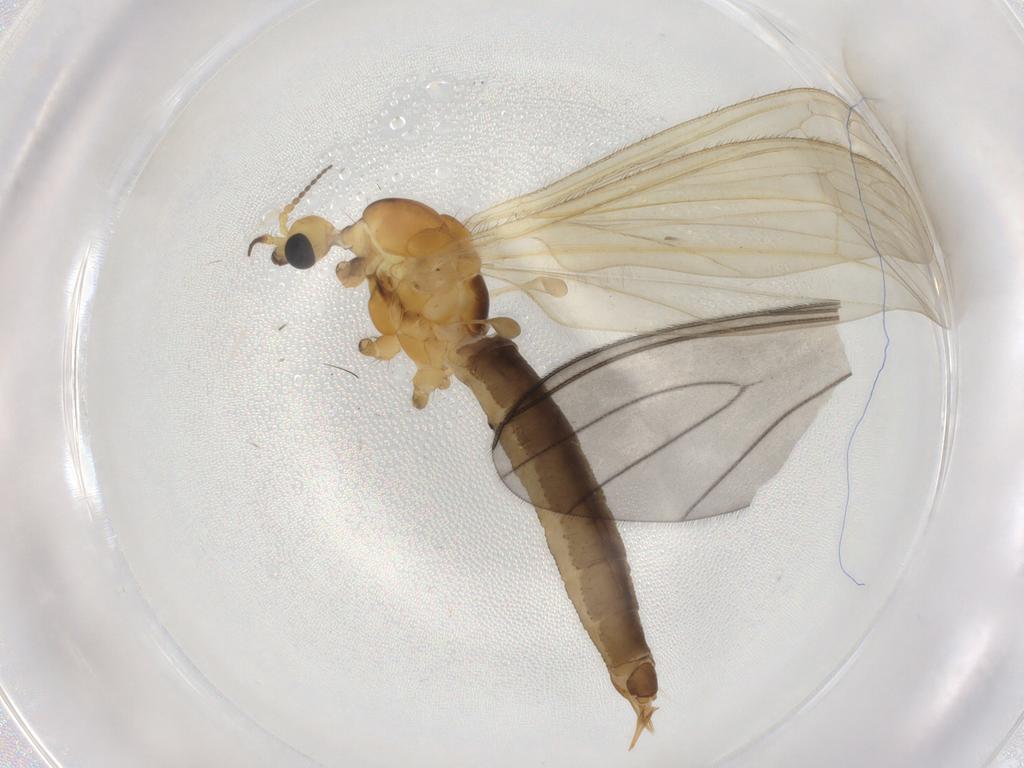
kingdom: Animalia
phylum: Arthropoda
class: Insecta
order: Diptera
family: Limoniidae
